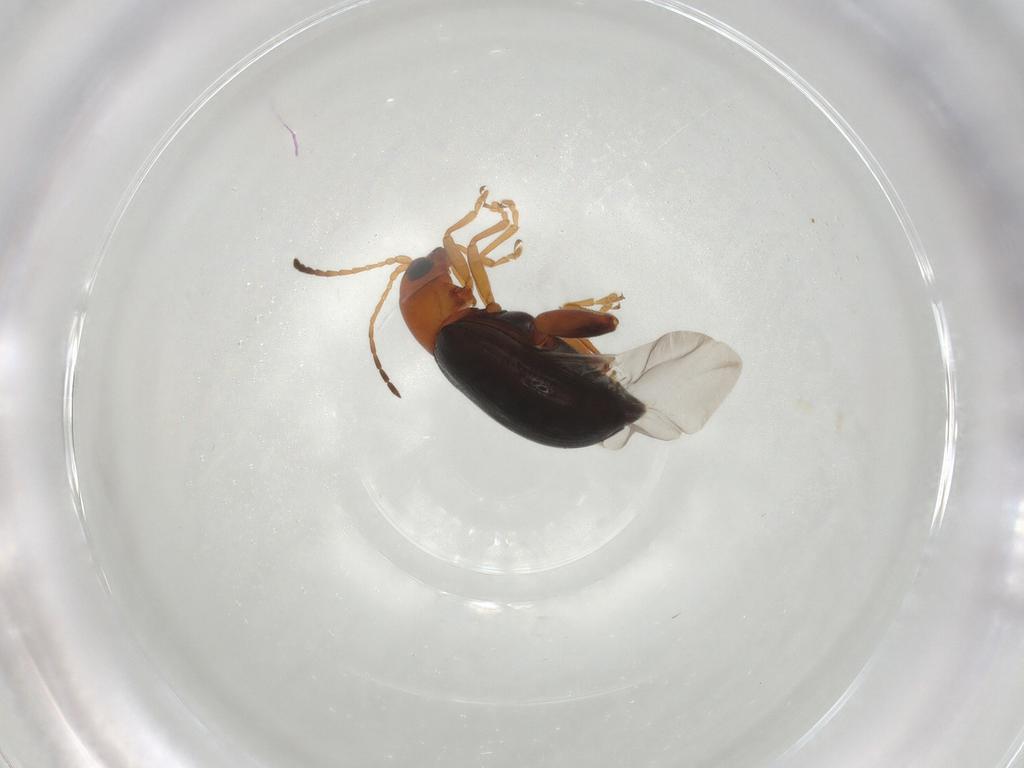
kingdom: Animalia
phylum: Arthropoda
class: Insecta
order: Coleoptera
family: Chrysomelidae
